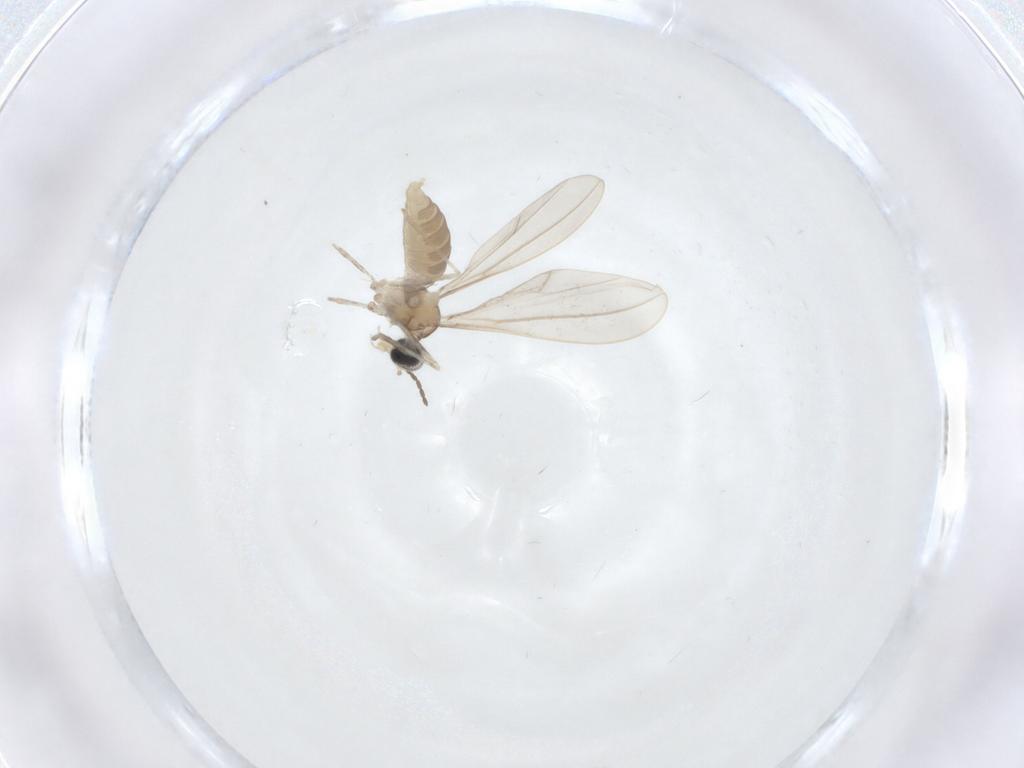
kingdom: Animalia
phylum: Arthropoda
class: Insecta
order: Diptera
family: Cecidomyiidae
